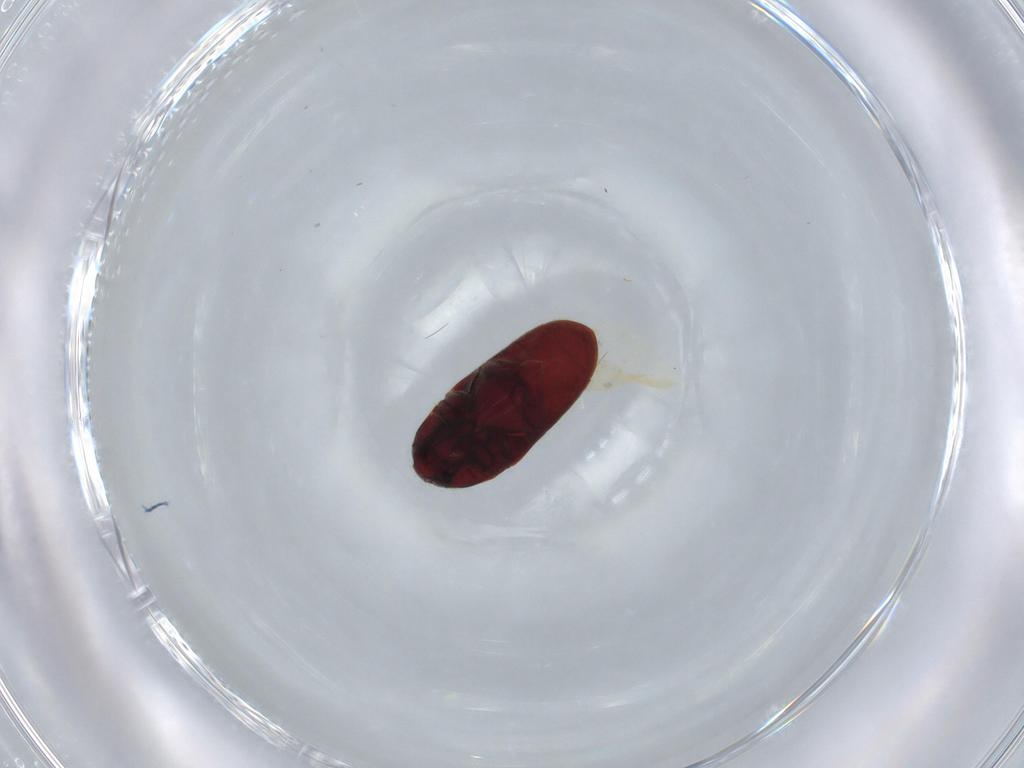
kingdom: Animalia
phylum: Arthropoda
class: Insecta
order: Coleoptera
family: Throscidae
